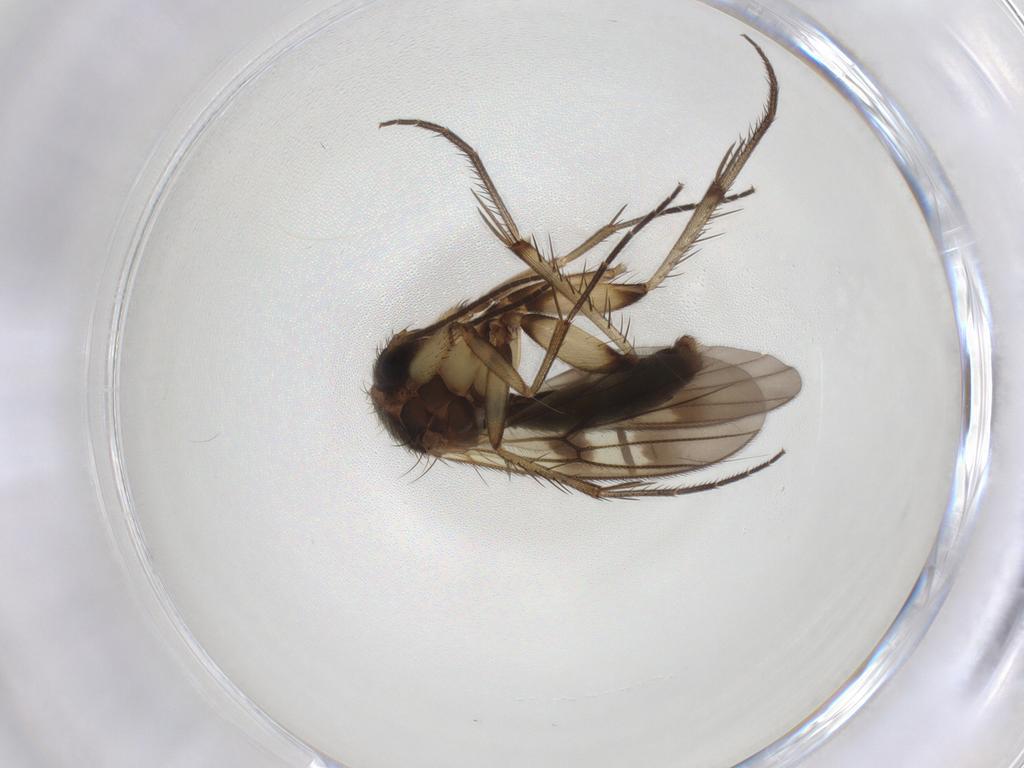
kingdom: Animalia
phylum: Arthropoda
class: Insecta
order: Diptera
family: Mycetophilidae
